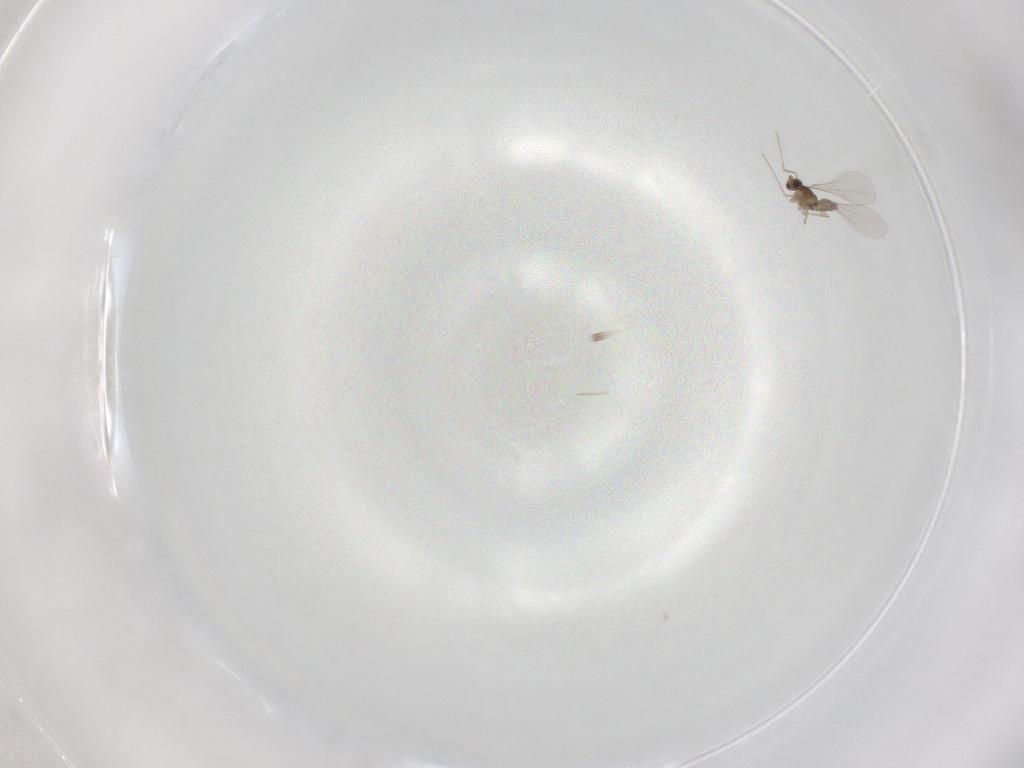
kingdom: Animalia
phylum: Arthropoda
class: Insecta
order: Diptera
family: Cecidomyiidae
